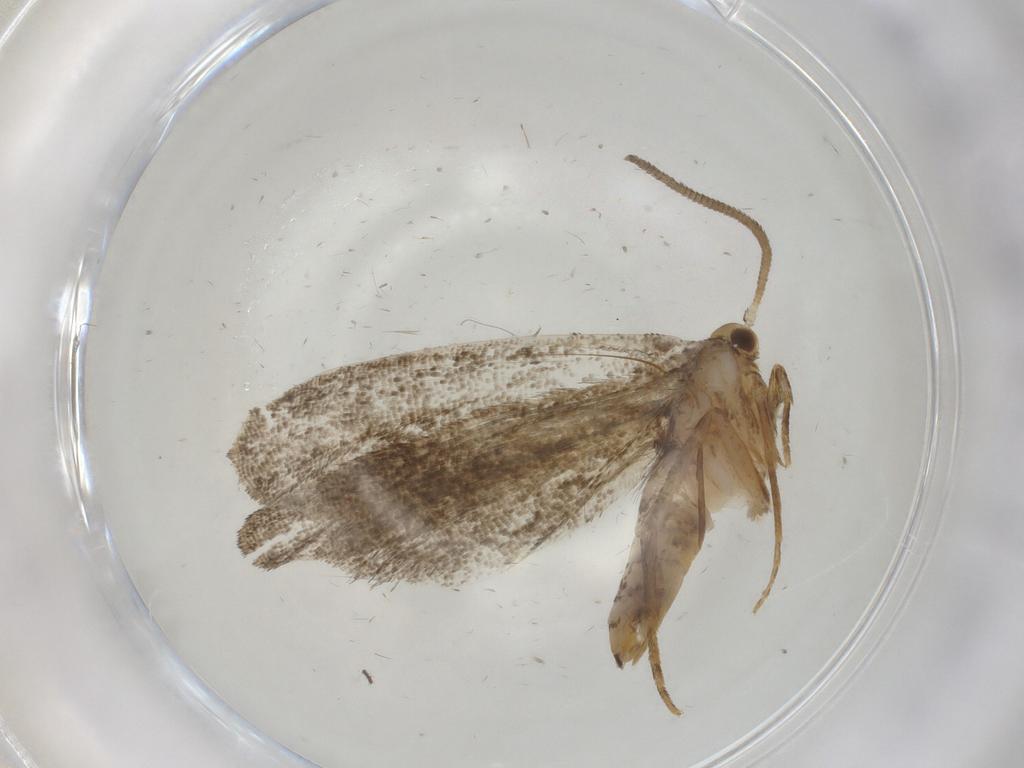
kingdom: Animalia
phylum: Arthropoda
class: Insecta
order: Lepidoptera
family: Dryadaulidae
